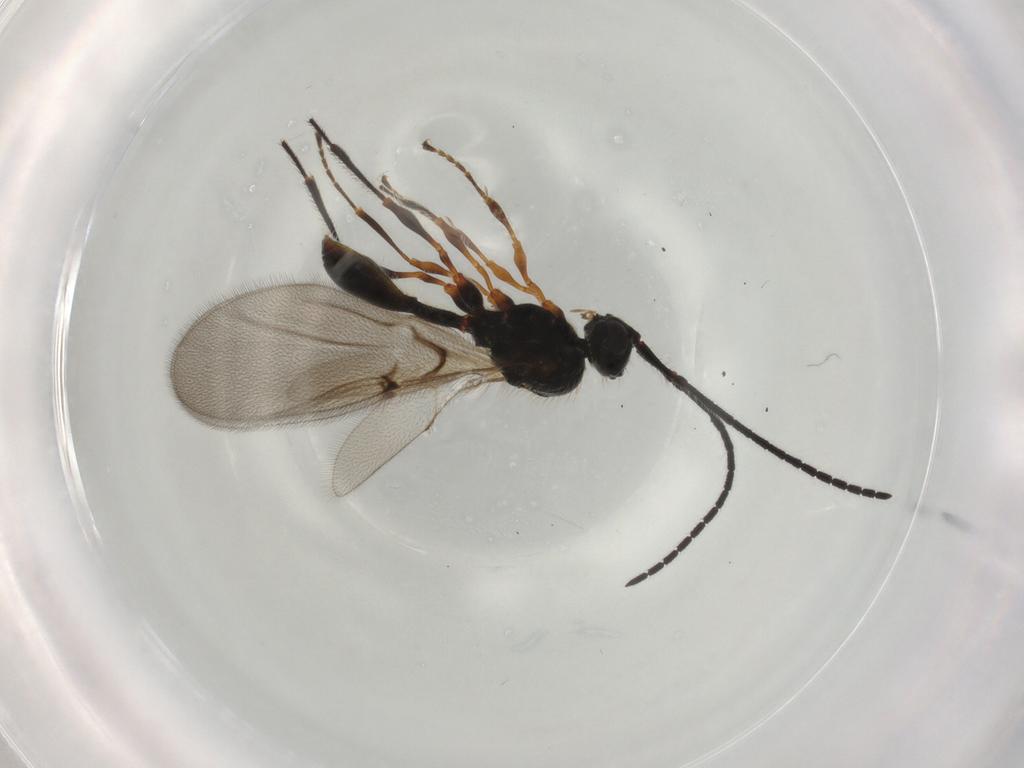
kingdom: Animalia
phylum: Arthropoda
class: Insecta
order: Hymenoptera
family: Diapriidae
